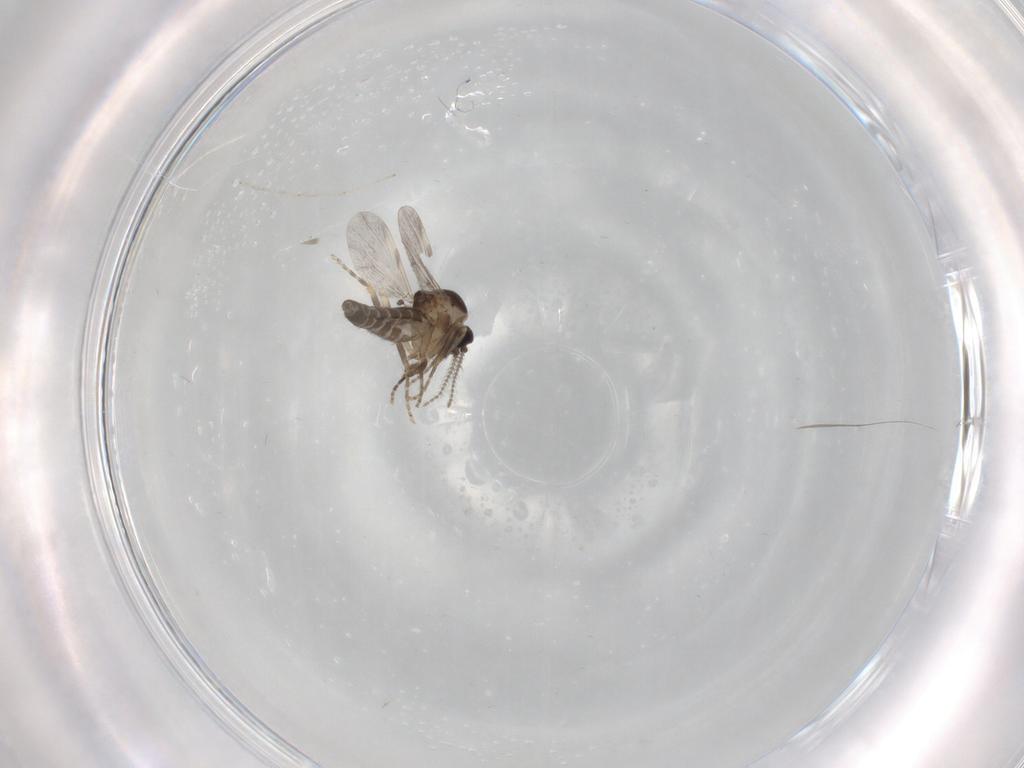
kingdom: Animalia
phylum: Arthropoda
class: Insecta
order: Diptera
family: Ceratopogonidae
